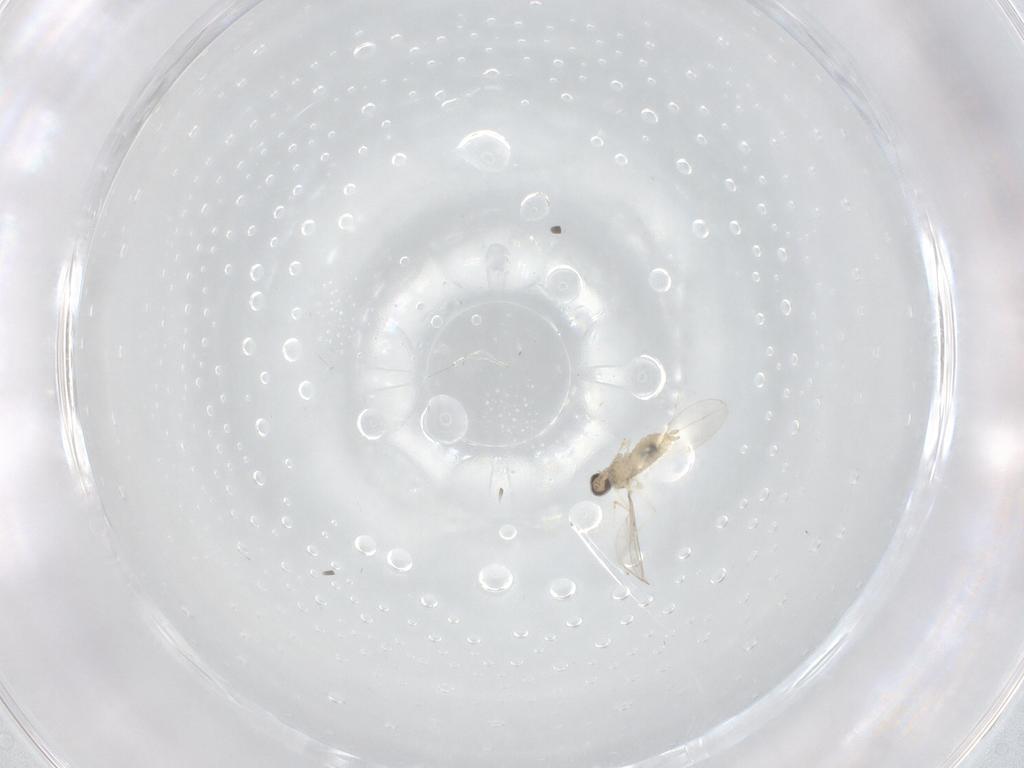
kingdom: Animalia
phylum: Arthropoda
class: Insecta
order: Diptera
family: Cecidomyiidae
